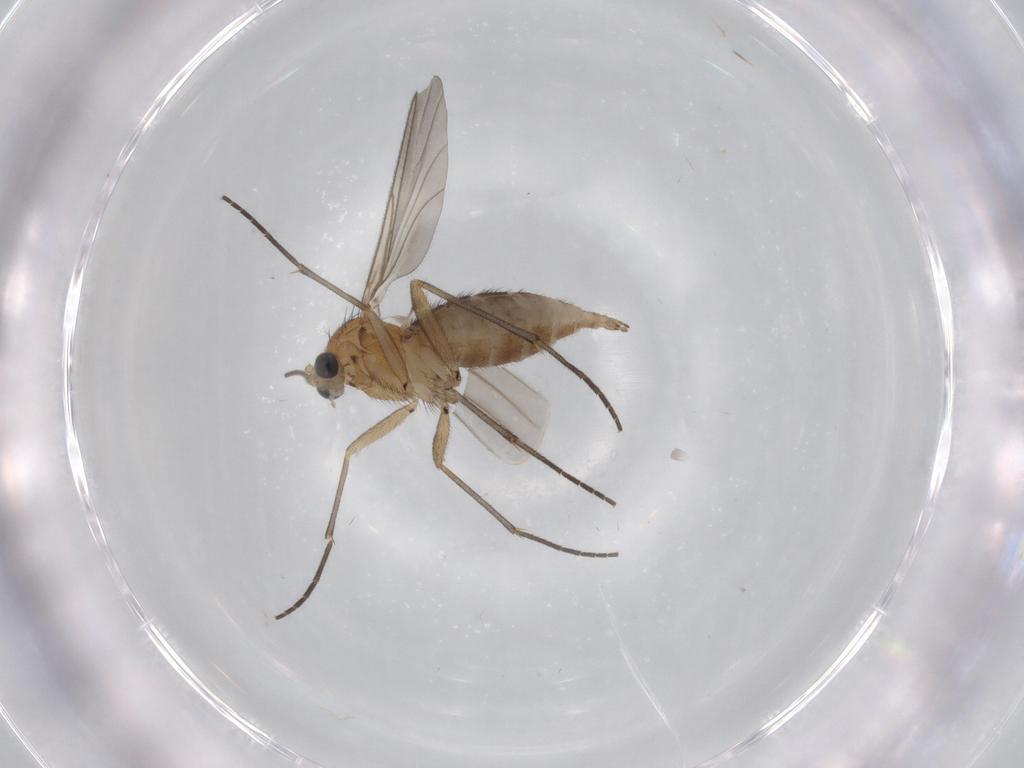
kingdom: Animalia
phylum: Arthropoda
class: Insecta
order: Diptera
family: Sciaridae
